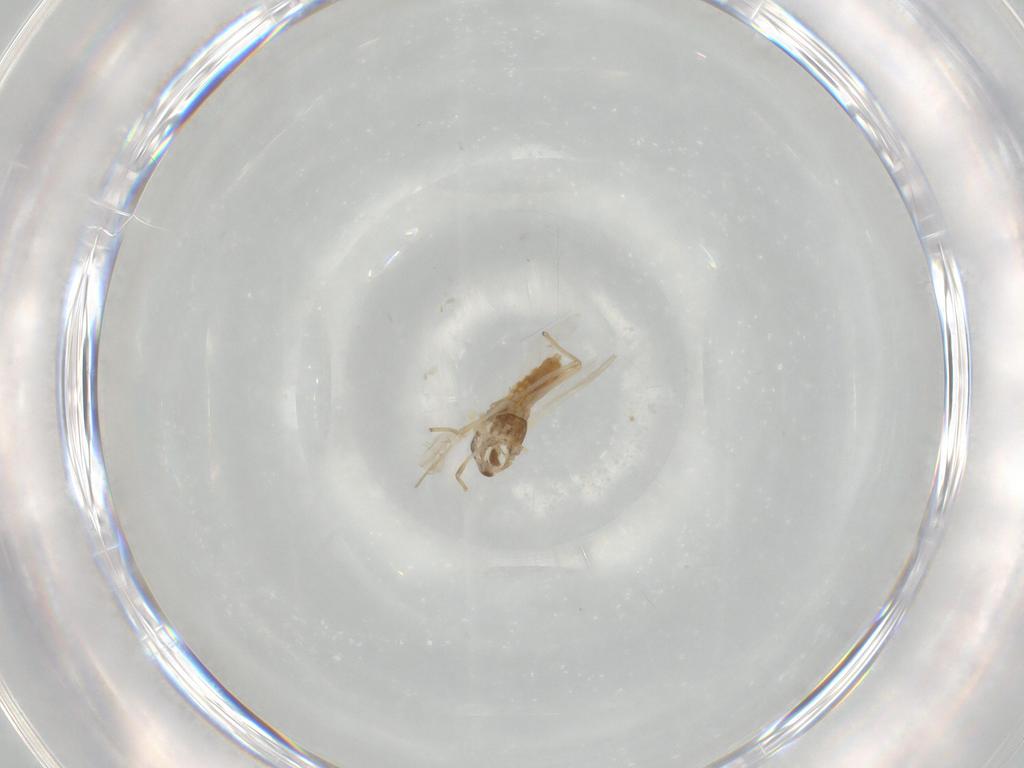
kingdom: Animalia
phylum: Arthropoda
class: Insecta
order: Diptera
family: Chironomidae
